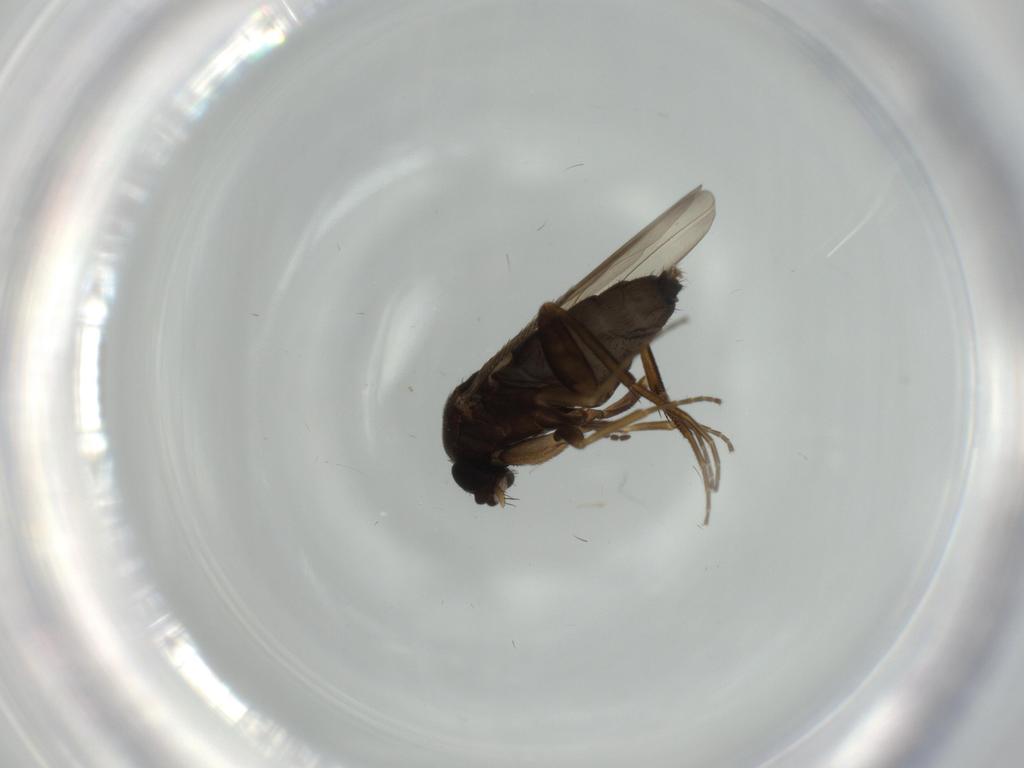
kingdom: Animalia
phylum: Arthropoda
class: Insecta
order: Diptera
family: Phoridae
